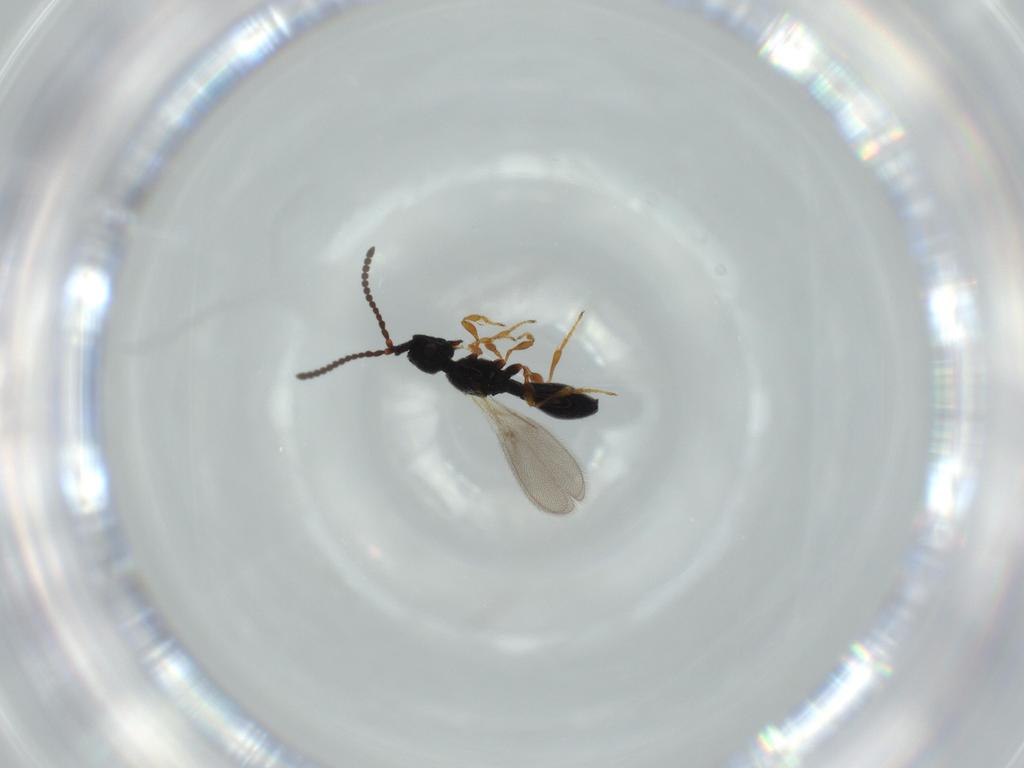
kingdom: Animalia
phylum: Arthropoda
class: Insecta
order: Hymenoptera
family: Diapriidae
